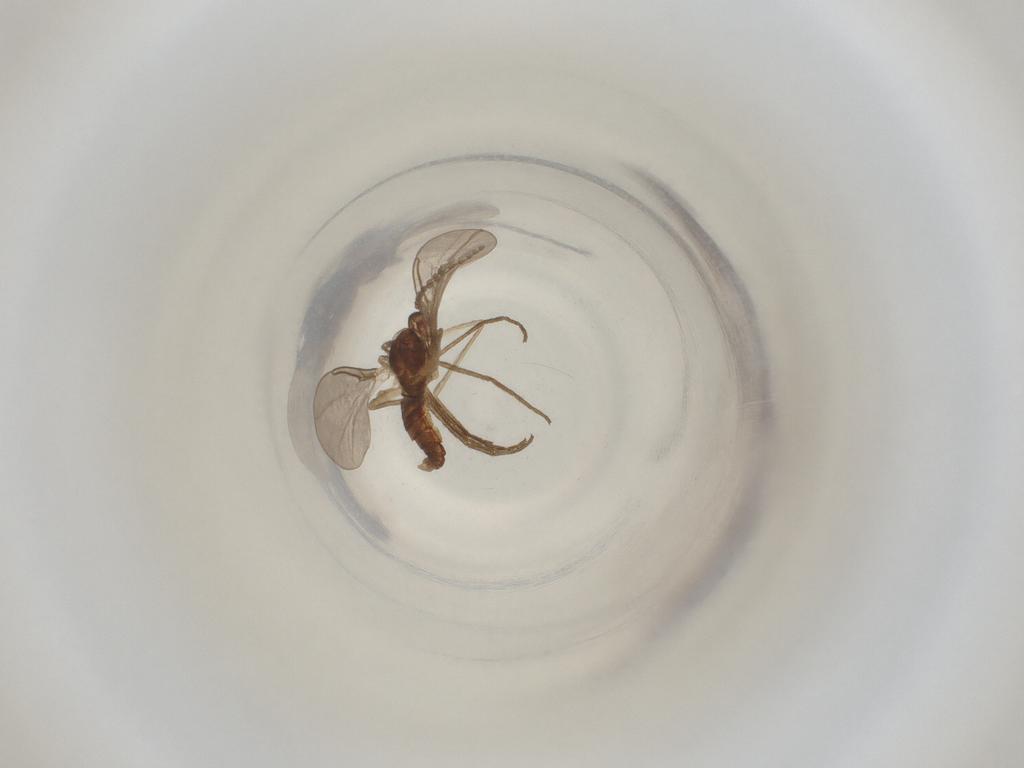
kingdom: Animalia
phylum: Arthropoda
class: Insecta
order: Diptera
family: Cecidomyiidae
